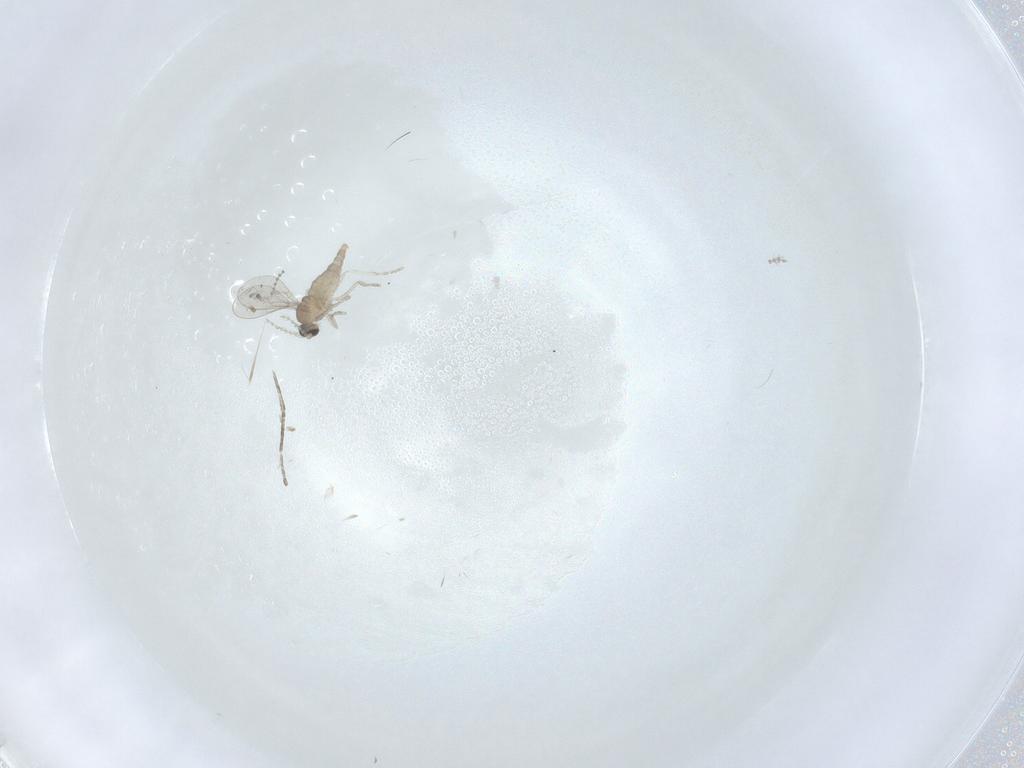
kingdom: Animalia
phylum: Arthropoda
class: Insecta
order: Diptera
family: Cecidomyiidae
